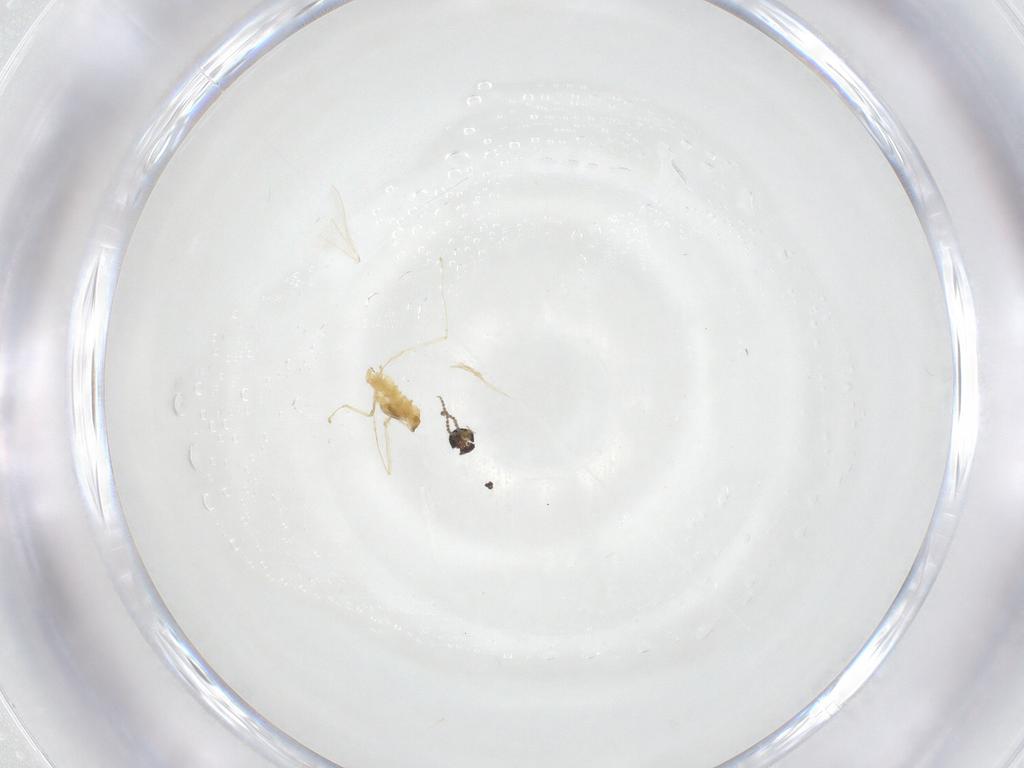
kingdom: Animalia
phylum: Arthropoda
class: Insecta
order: Diptera
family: Cecidomyiidae
